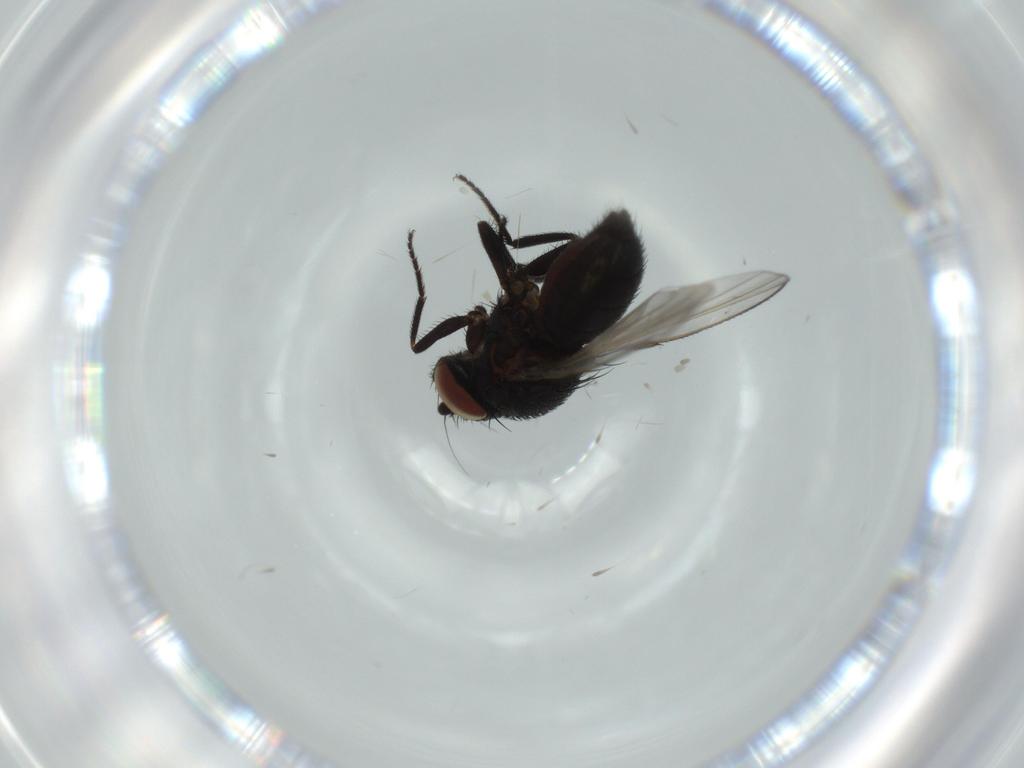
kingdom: Animalia
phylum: Arthropoda
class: Insecta
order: Diptera
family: Milichiidae
